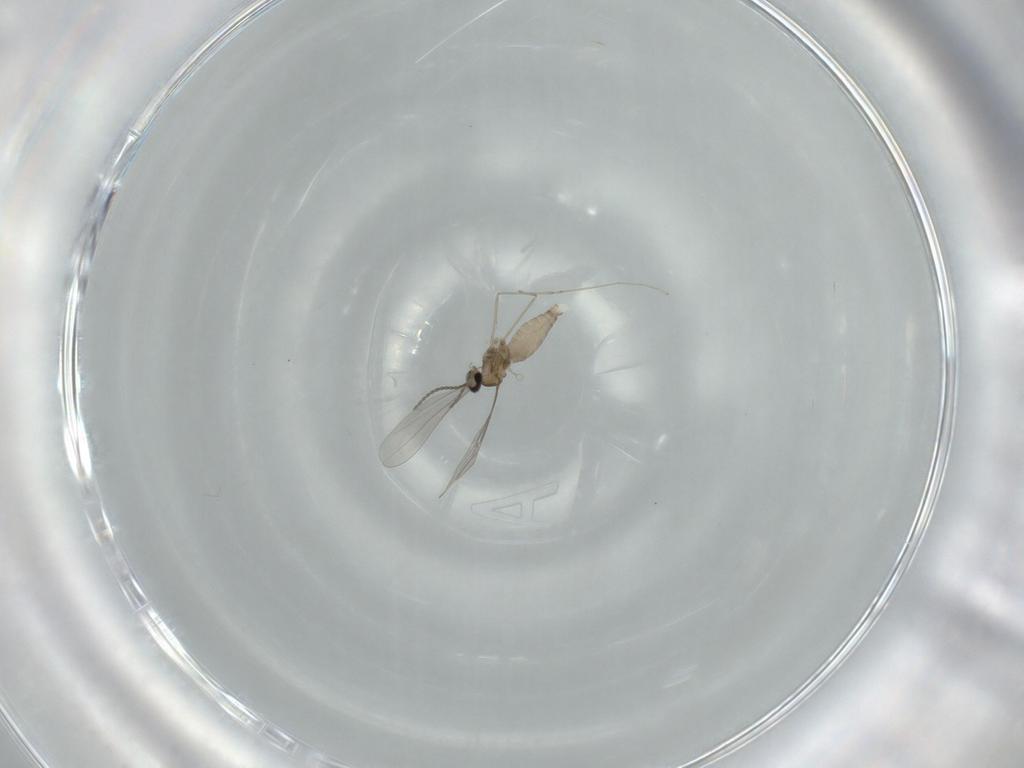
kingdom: Animalia
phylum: Arthropoda
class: Insecta
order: Diptera
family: Cecidomyiidae
